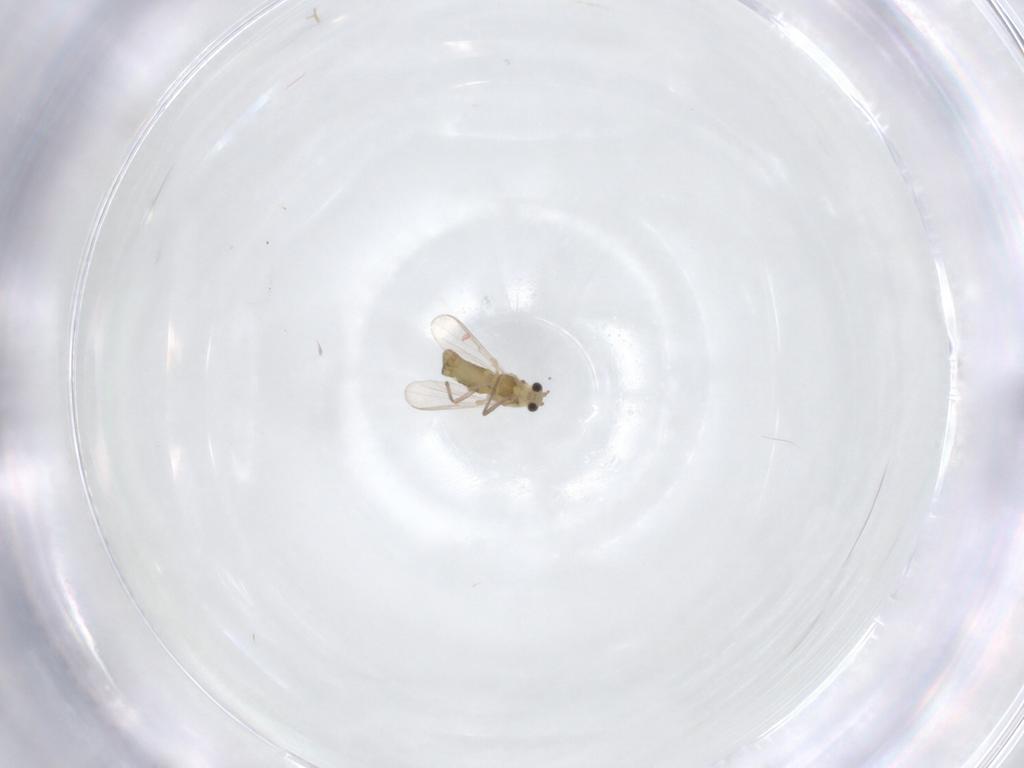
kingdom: Animalia
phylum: Arthropoda
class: Insecta
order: Diptera
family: Chironomidae
